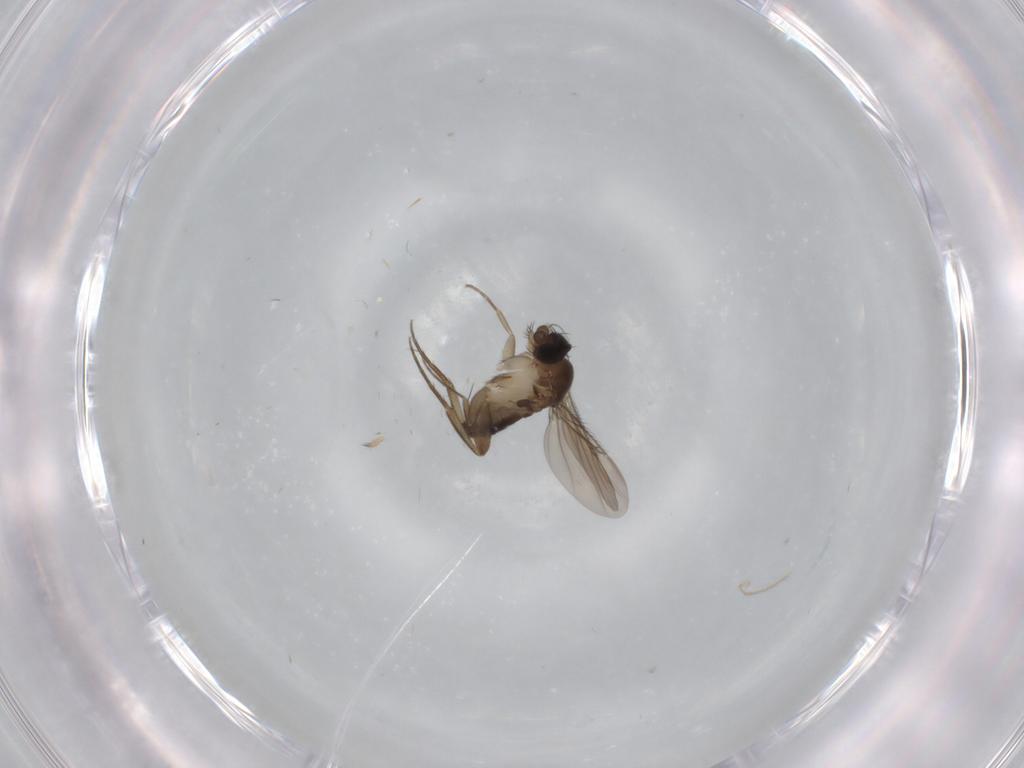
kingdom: Animalia
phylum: Arthropoda
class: Insecta
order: Diptera
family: Phoridae
